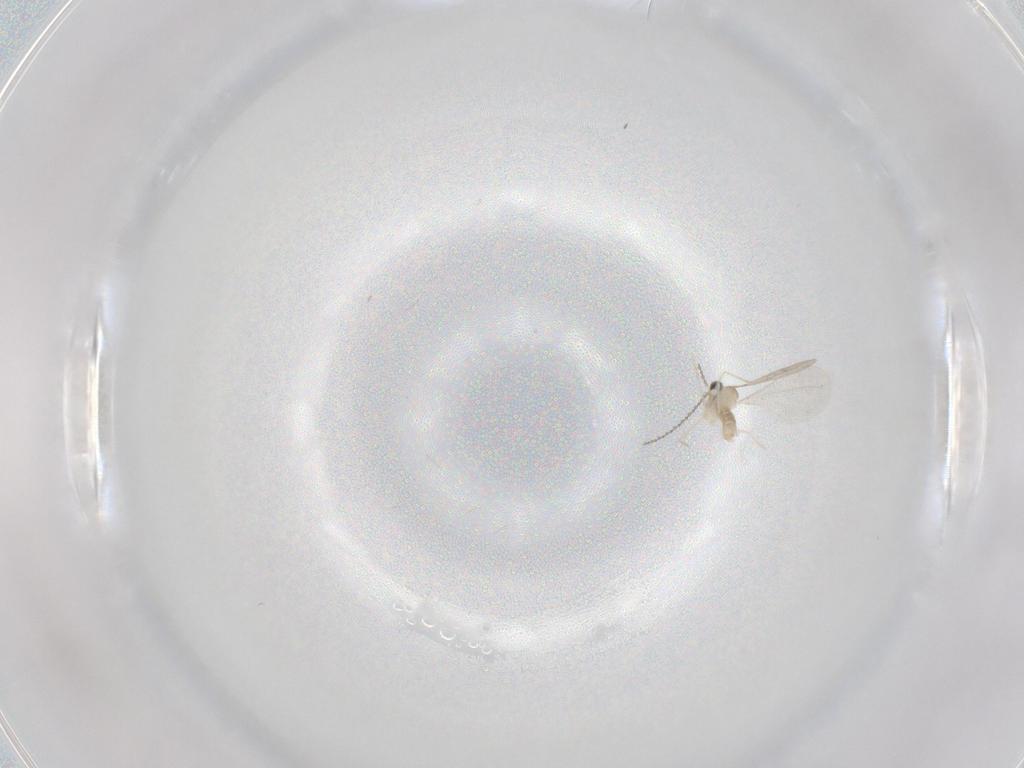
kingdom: Animalia
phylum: Arthropoda
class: Insecta
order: Diptera
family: Cecidomyiidae
